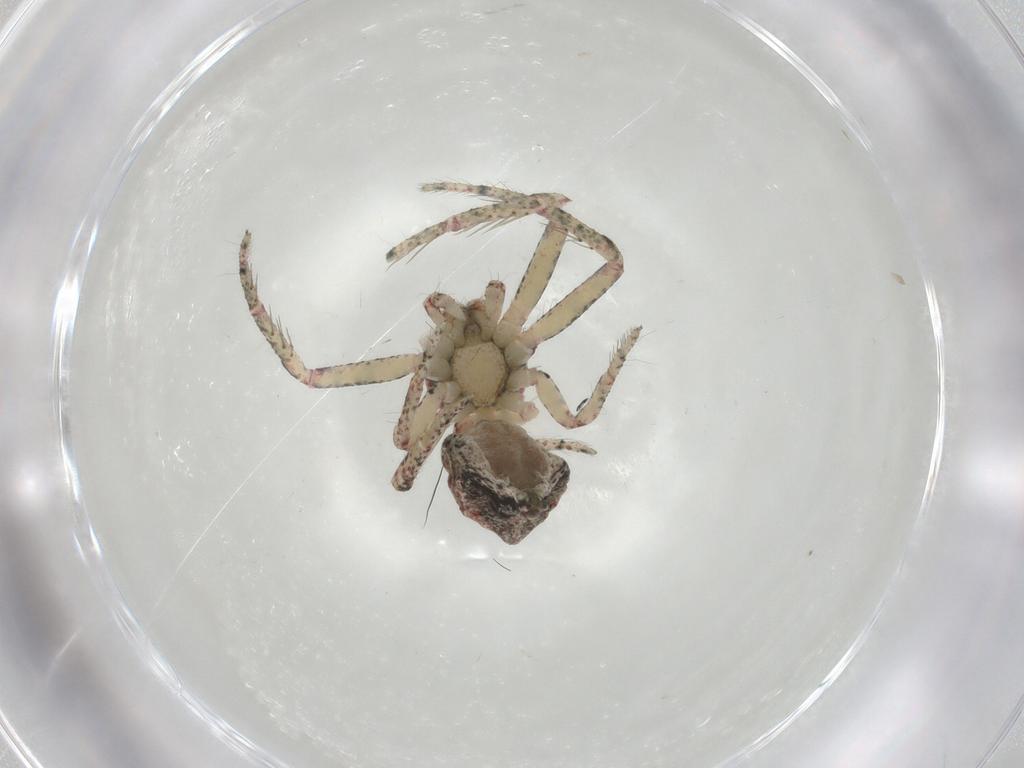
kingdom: Animalia
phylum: Arthropoda
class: Arachnida
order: Araneae
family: Thomisidae
